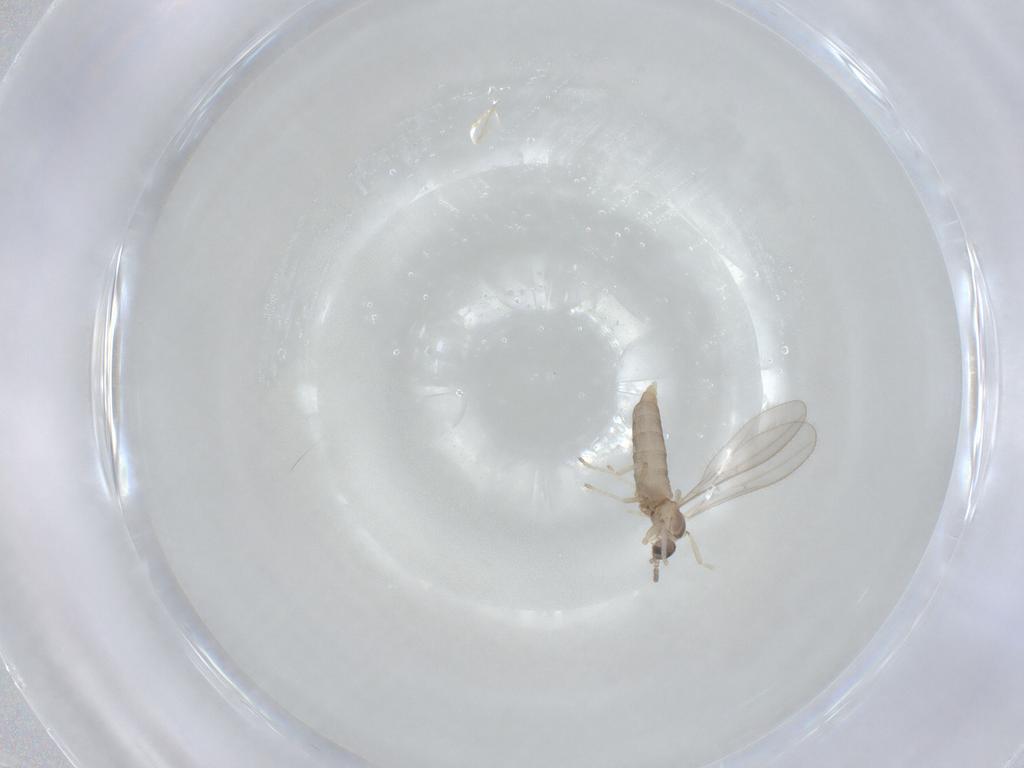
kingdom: Animalia
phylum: Arthropoda
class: Insecta
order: Diptera
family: Cecidomyiidae
